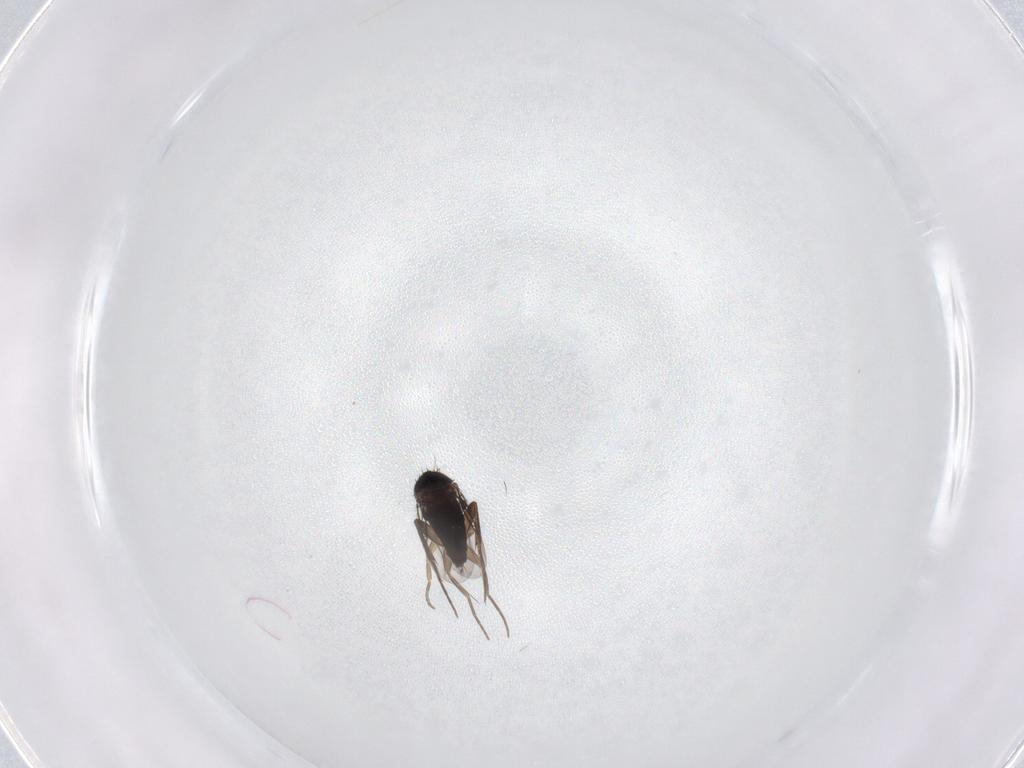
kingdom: Animalia
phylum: Arthropoda
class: Insecta
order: Diptera
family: Phoridae
